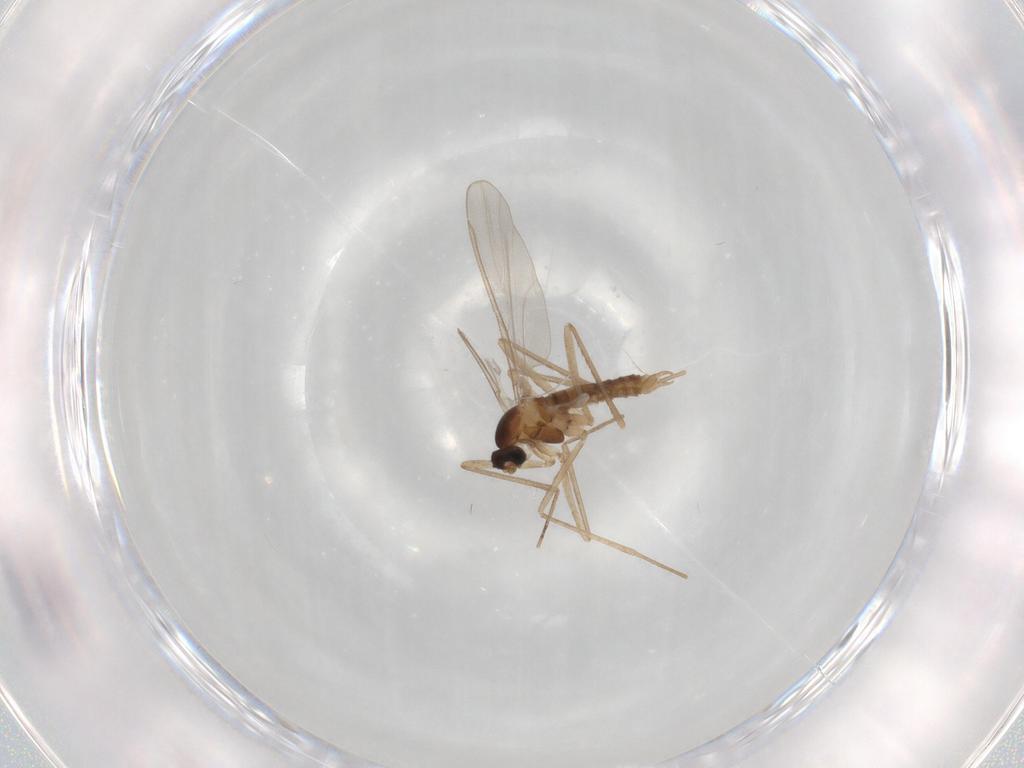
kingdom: Animalia
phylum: Arthropoda
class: Insecta
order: Diptera
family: Cecidomyiidae
